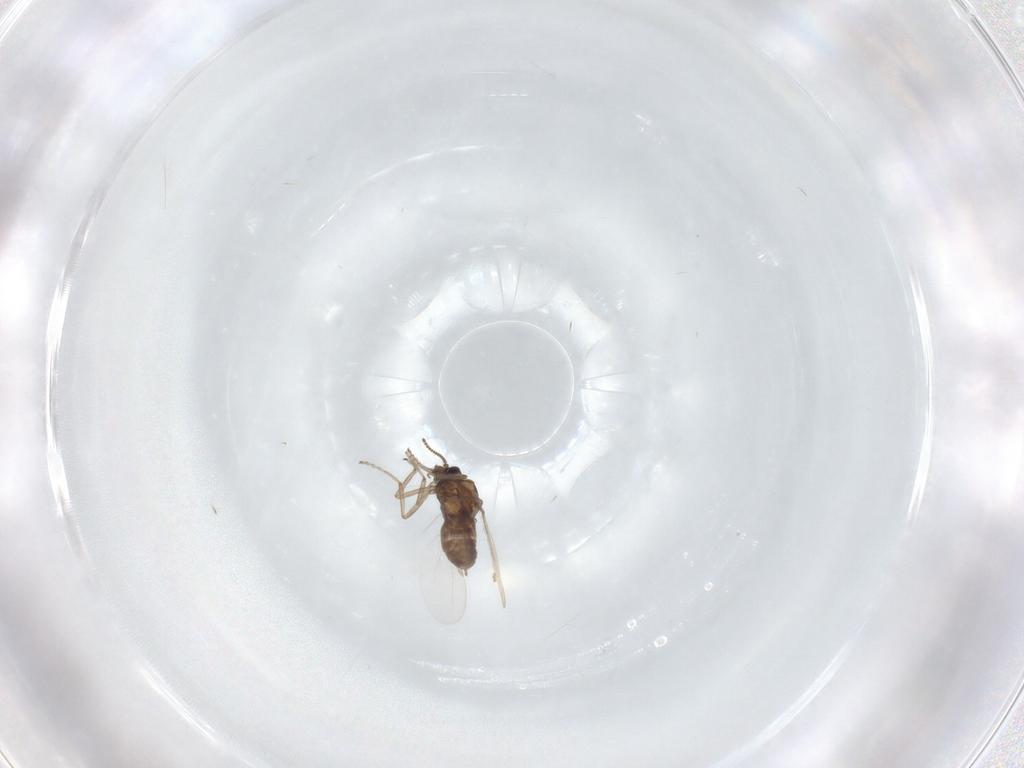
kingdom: Animalia
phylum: Arthropoda
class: Insecta
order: Diptera
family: Ceratopogonidae
